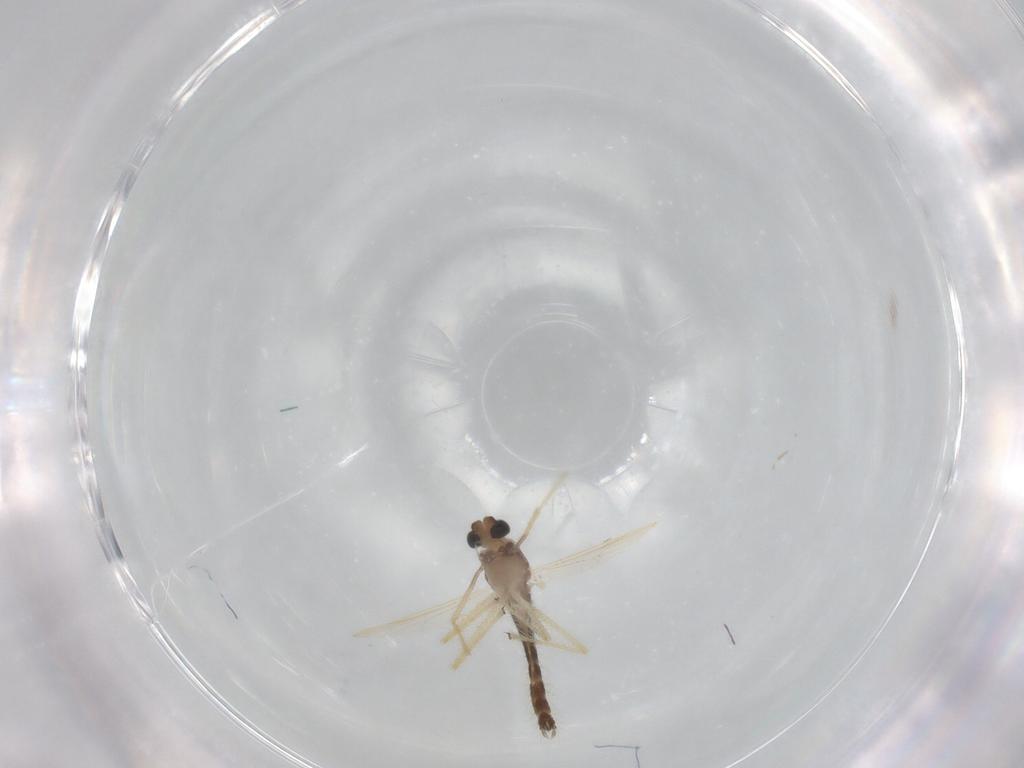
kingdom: Animalia
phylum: Arthropoda
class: Insecta
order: Diptera
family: Chironomidae
